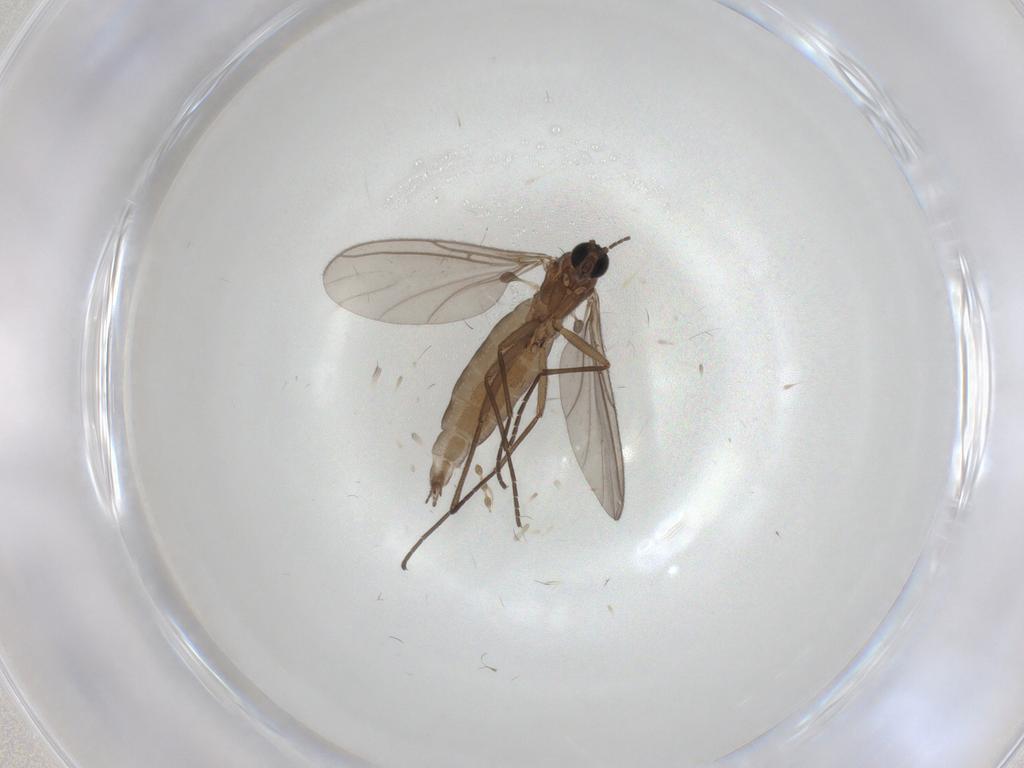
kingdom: Animalia
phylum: Arthropoda
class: Insecta
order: Diptera
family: Sciaridae
